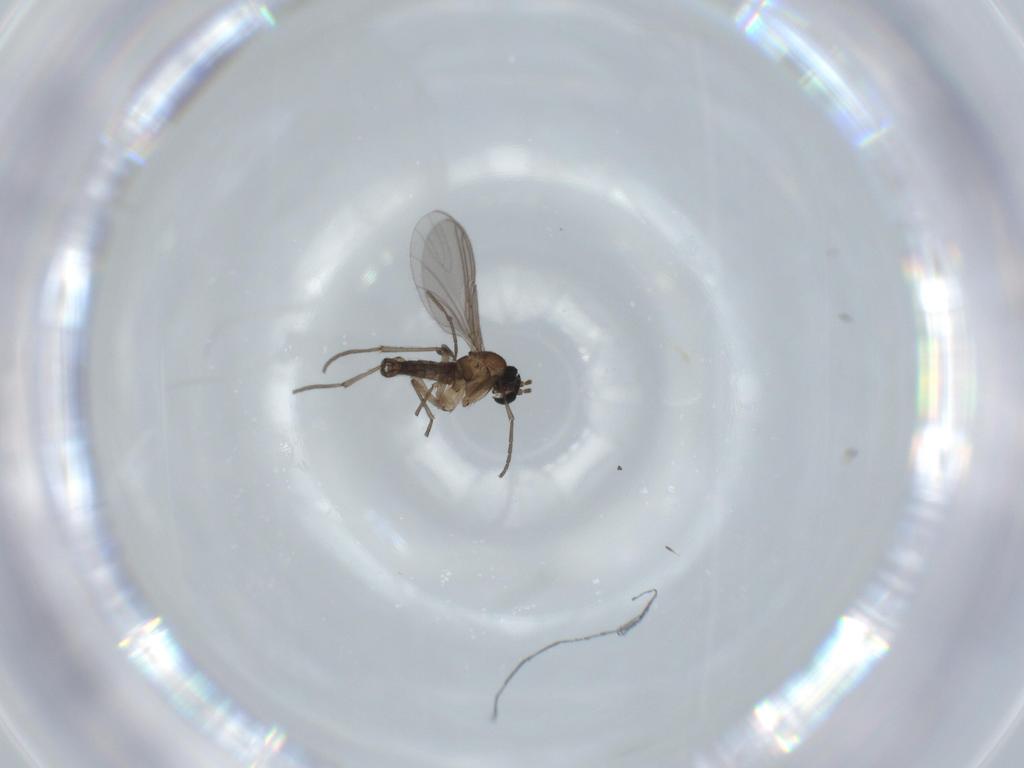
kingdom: Animalia
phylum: Arthropoda
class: Insecta
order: Diptera
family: Sciaridae
